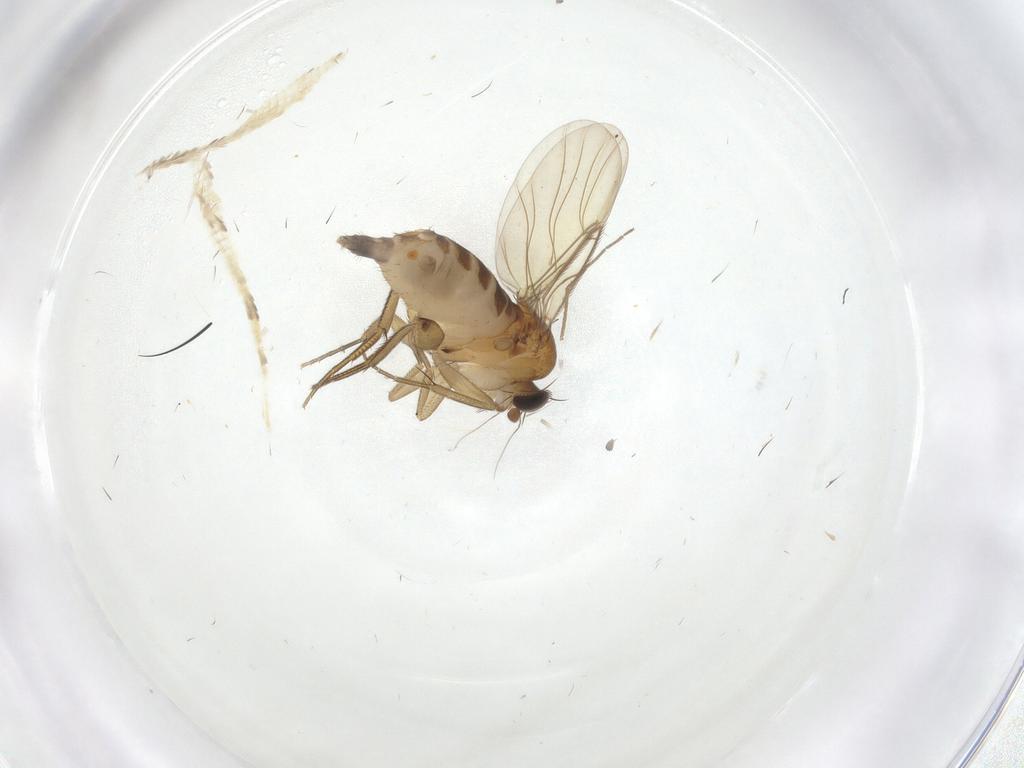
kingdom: Animalia
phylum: Arthropoda
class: Insecta
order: Diptera
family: Phoridae
